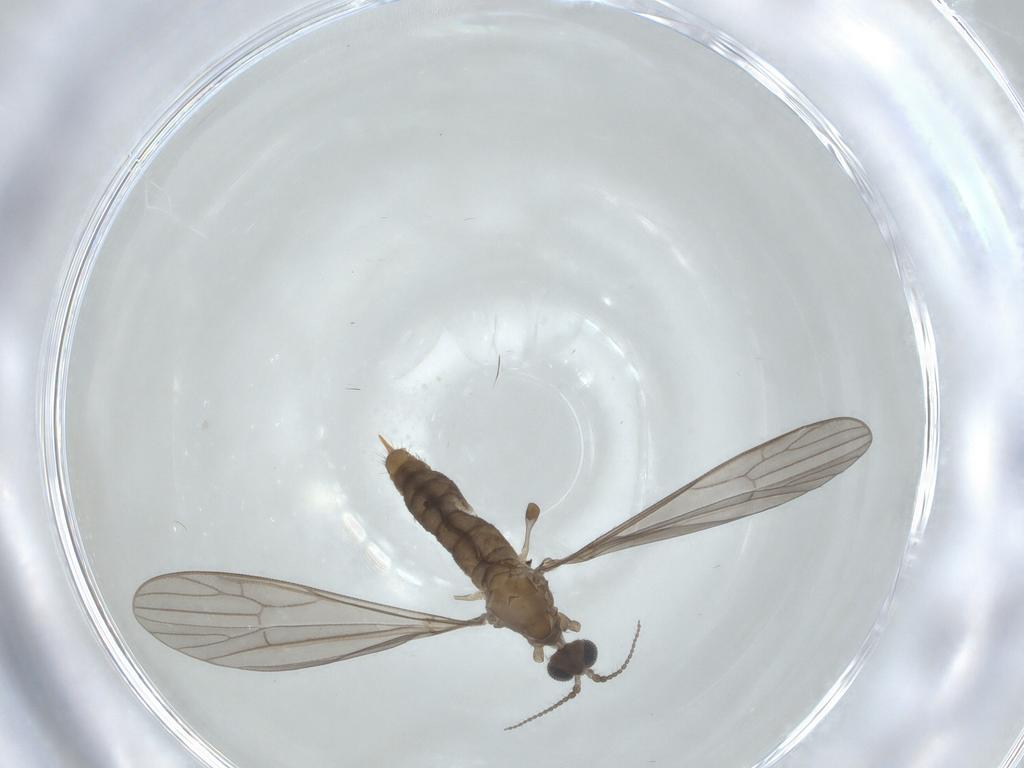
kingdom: Animalia
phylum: Arthropoda
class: Insecta
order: Diptera
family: Limoniidae
